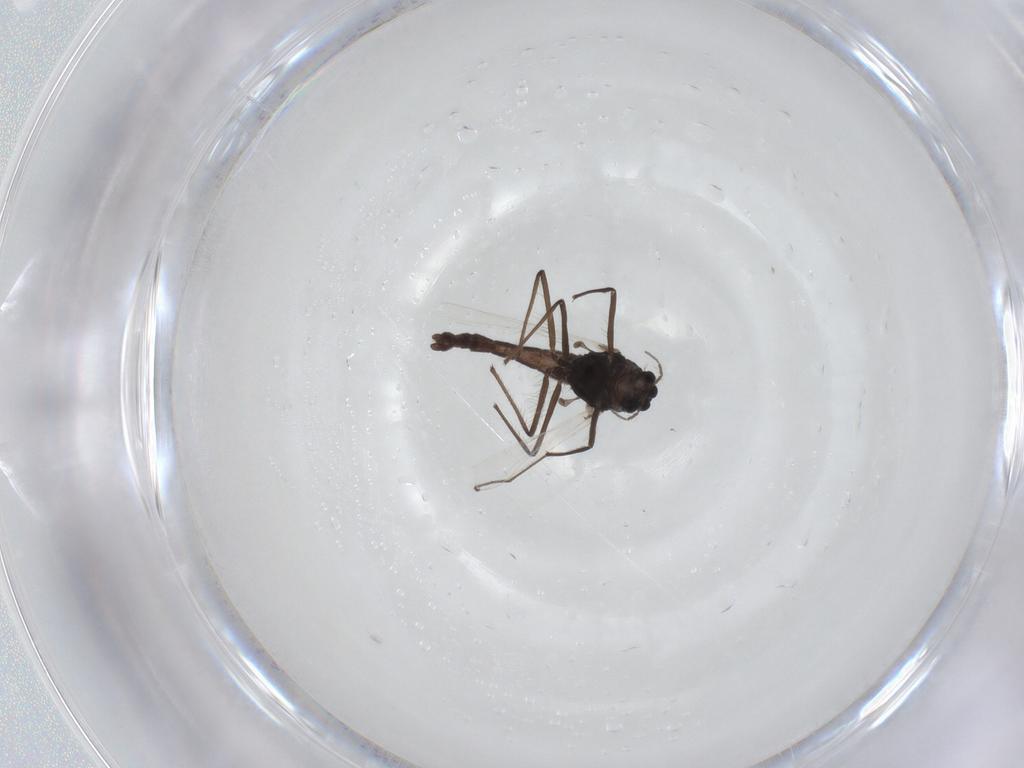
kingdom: Animalia
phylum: Arthropoda
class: Insecta
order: Diptera
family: Chironomidae
